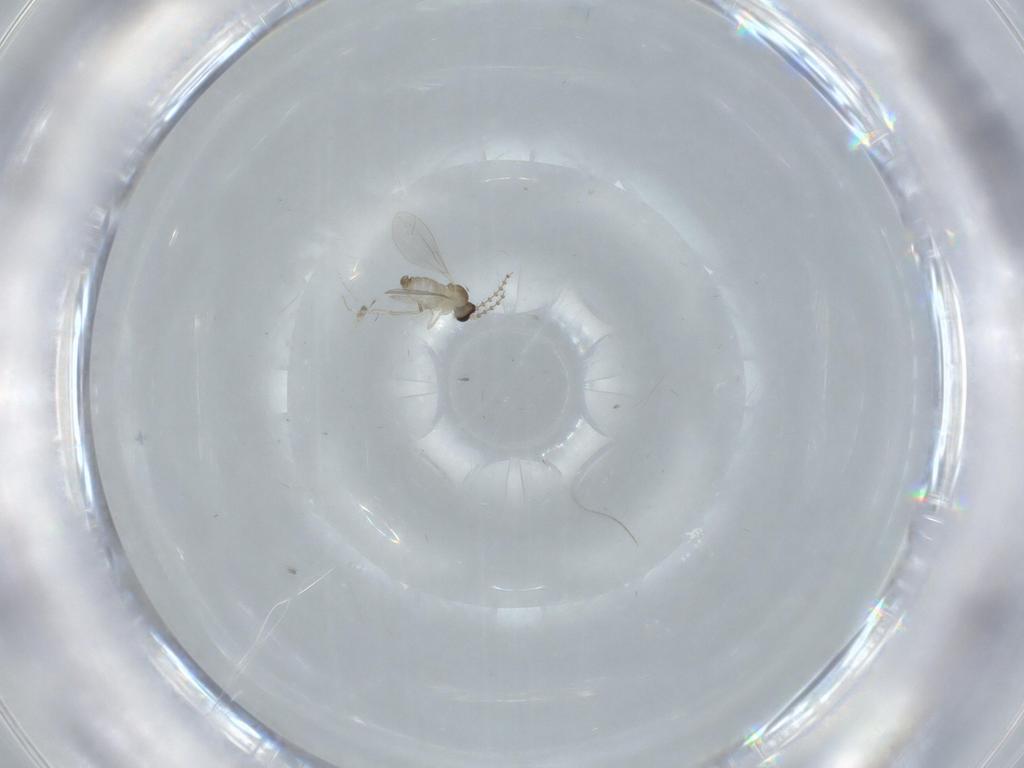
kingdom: Animalia
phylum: Arthropoda
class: Insecta
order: Diptera
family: Cecidomyiidae
